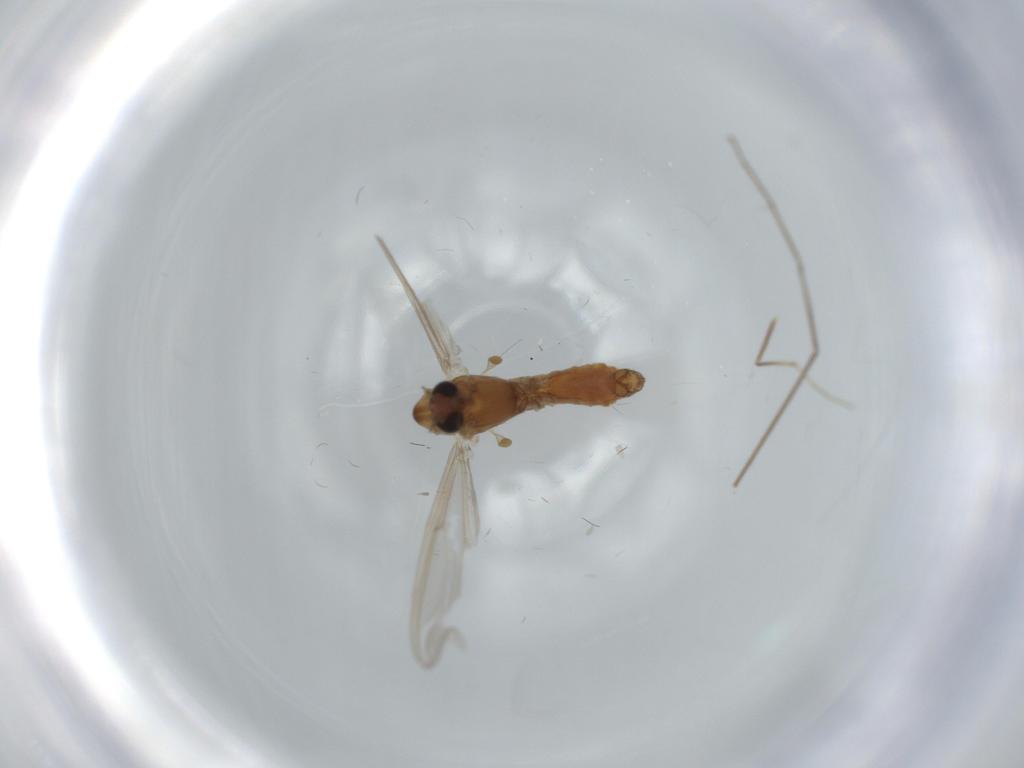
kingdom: Animalia
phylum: Arthropoda
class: Insecta
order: Diptera
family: Chironomidae
